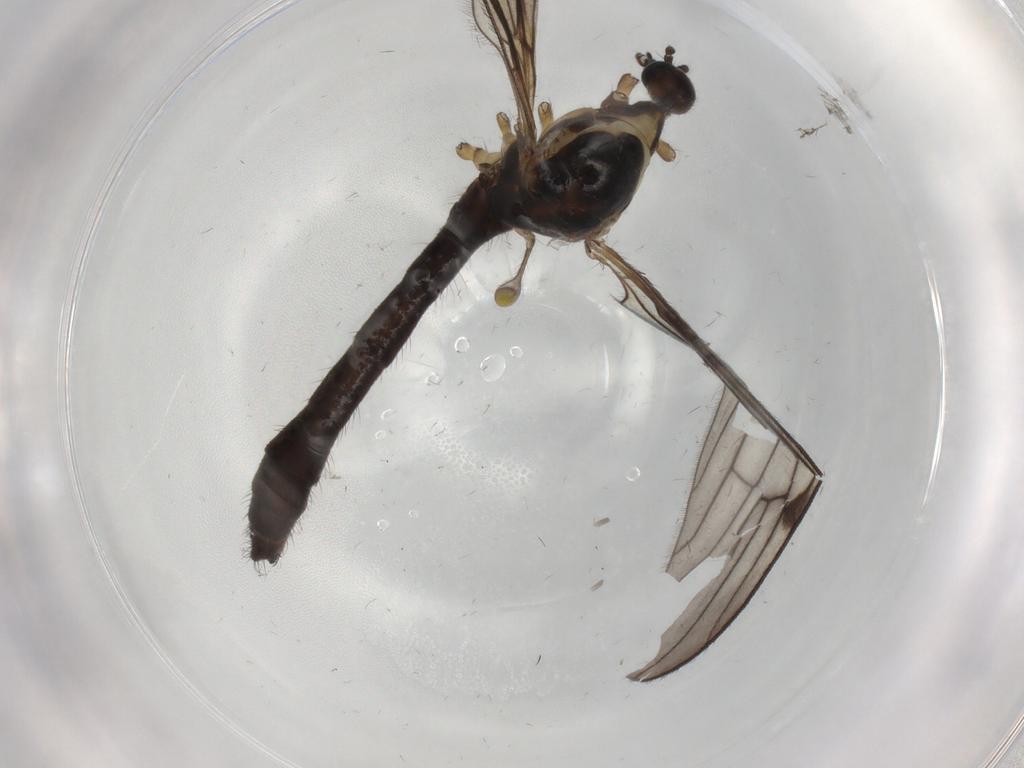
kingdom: Animalia
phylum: Arthropoda
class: Insecta
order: Diptera
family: Limoniidae
